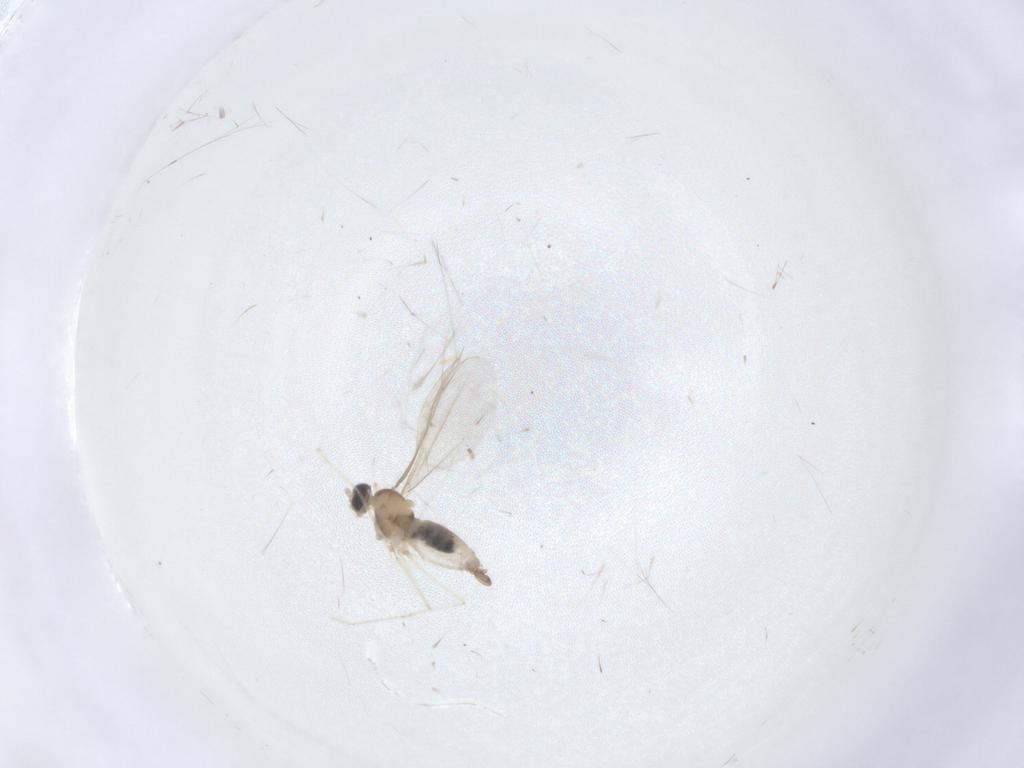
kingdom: Animalia
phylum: Arthropoda
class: Insecta
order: Diptera
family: Cecidomyiidae
